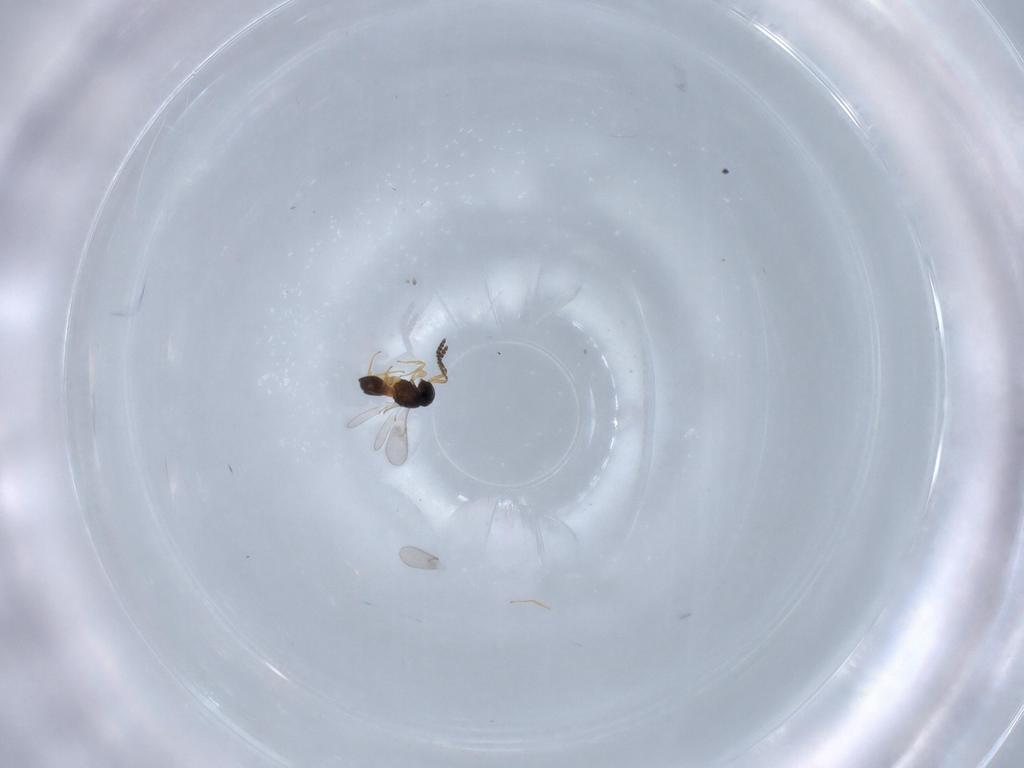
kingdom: Animalia
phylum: Arthropoda
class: Insecta
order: Hymenoptera
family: Scelionidae
